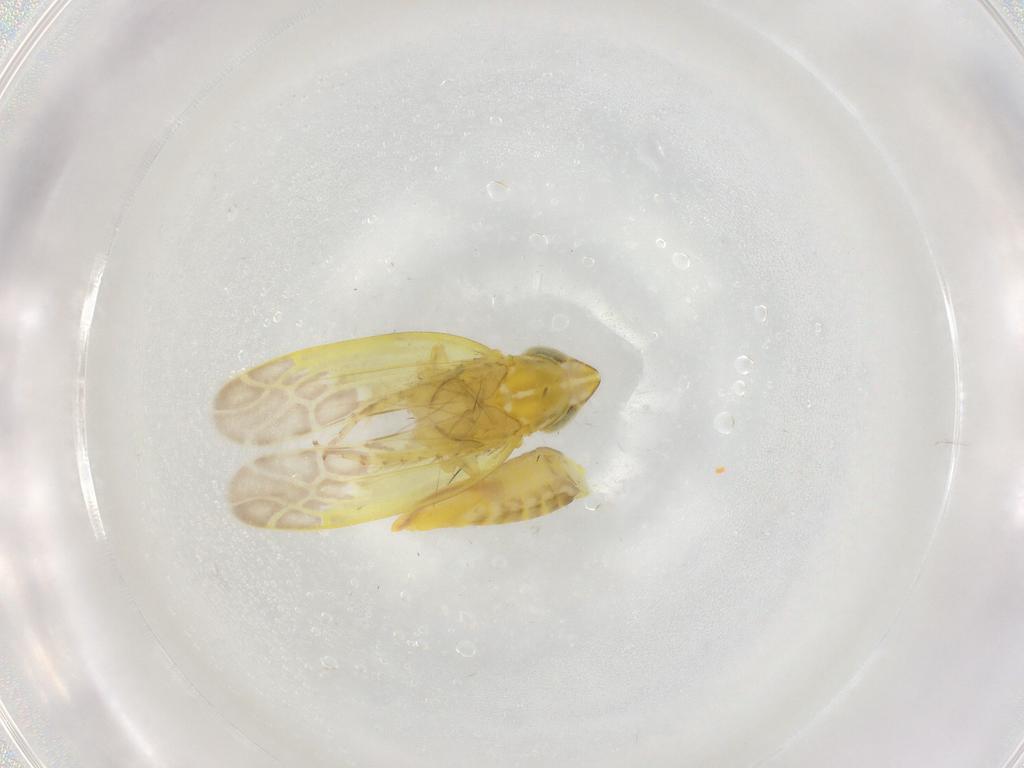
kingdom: Animalia
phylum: Arthropoda
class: Insecta
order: Hemiptera
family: Cicadellidae
